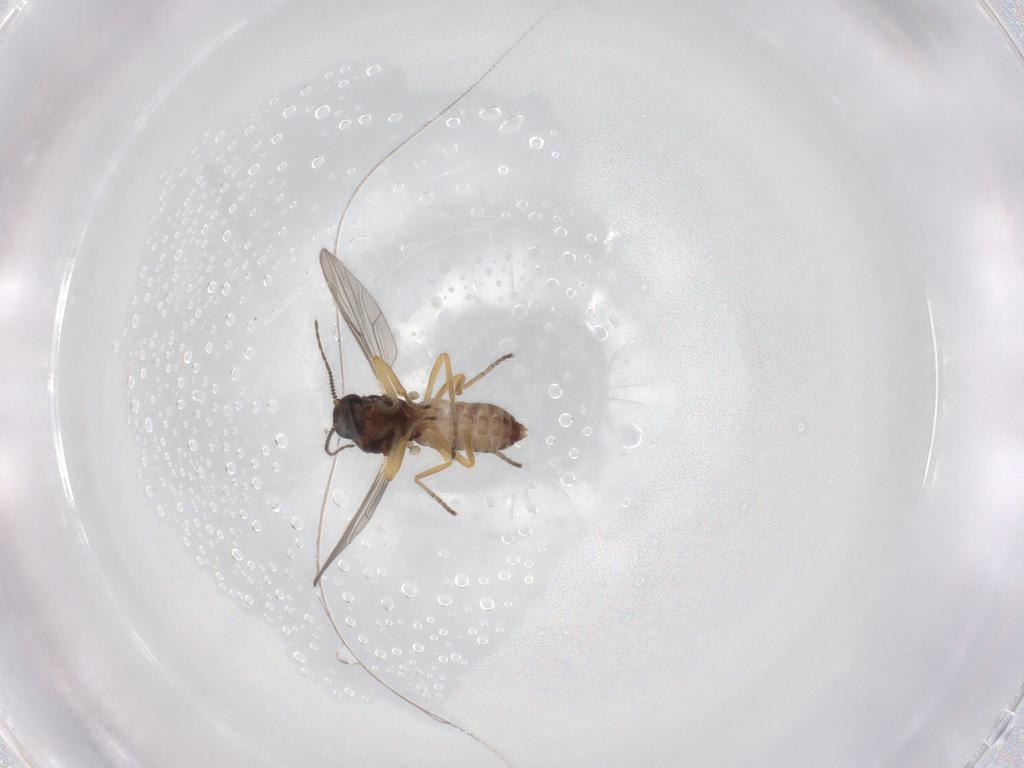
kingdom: Animalia
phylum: Arthropoda
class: Insecta
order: Diptera
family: Ceratopogonidae
